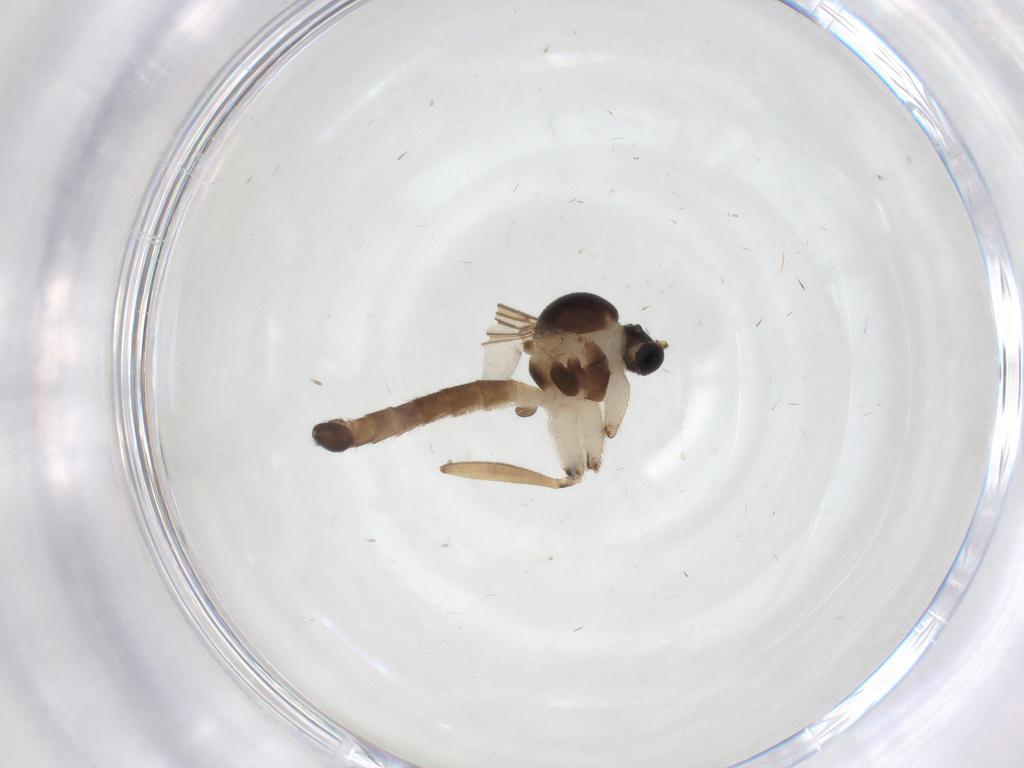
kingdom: Animalia
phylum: Arthropoda
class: Insecta
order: Diptera
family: Mycetophilidae
